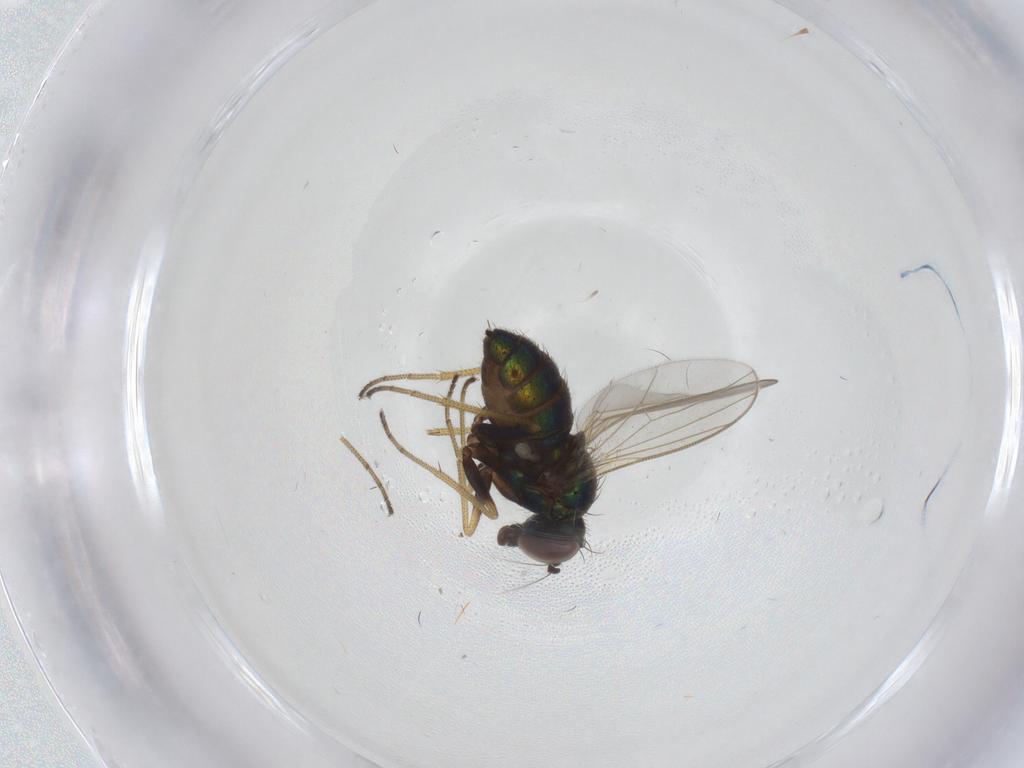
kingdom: Animalia
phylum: Arthropoda
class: Insecta
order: Diptera
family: Dolichopodidae
